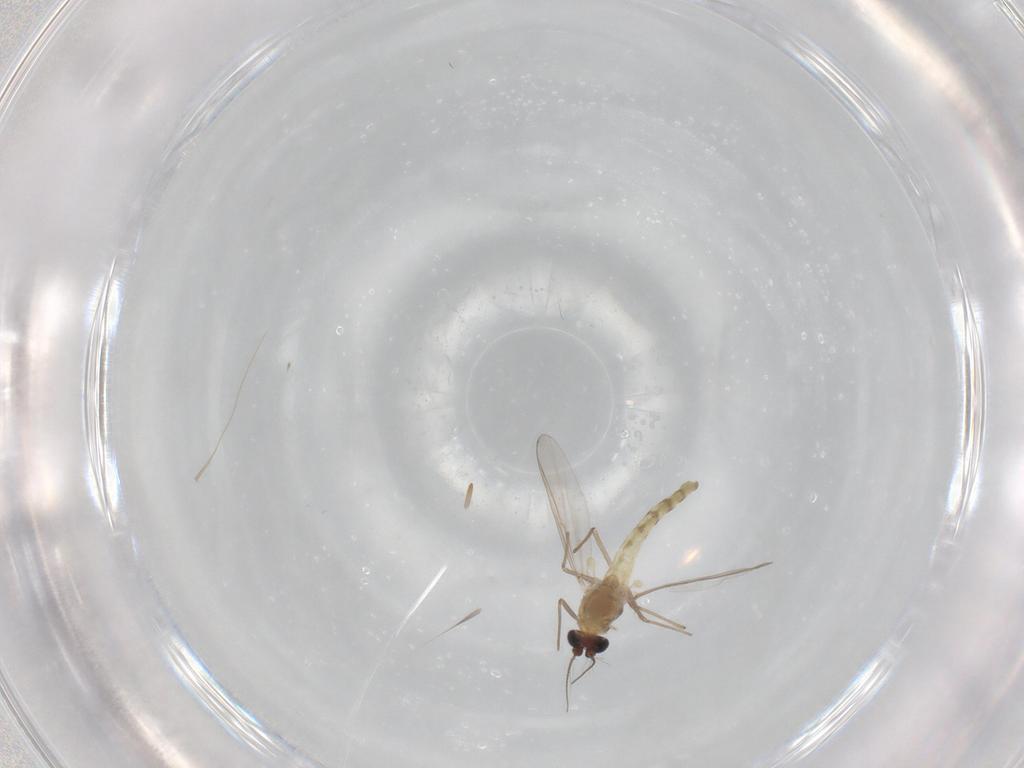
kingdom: Animalia
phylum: Arthropoda
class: Insecta
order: Diptera
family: Chironomidae
